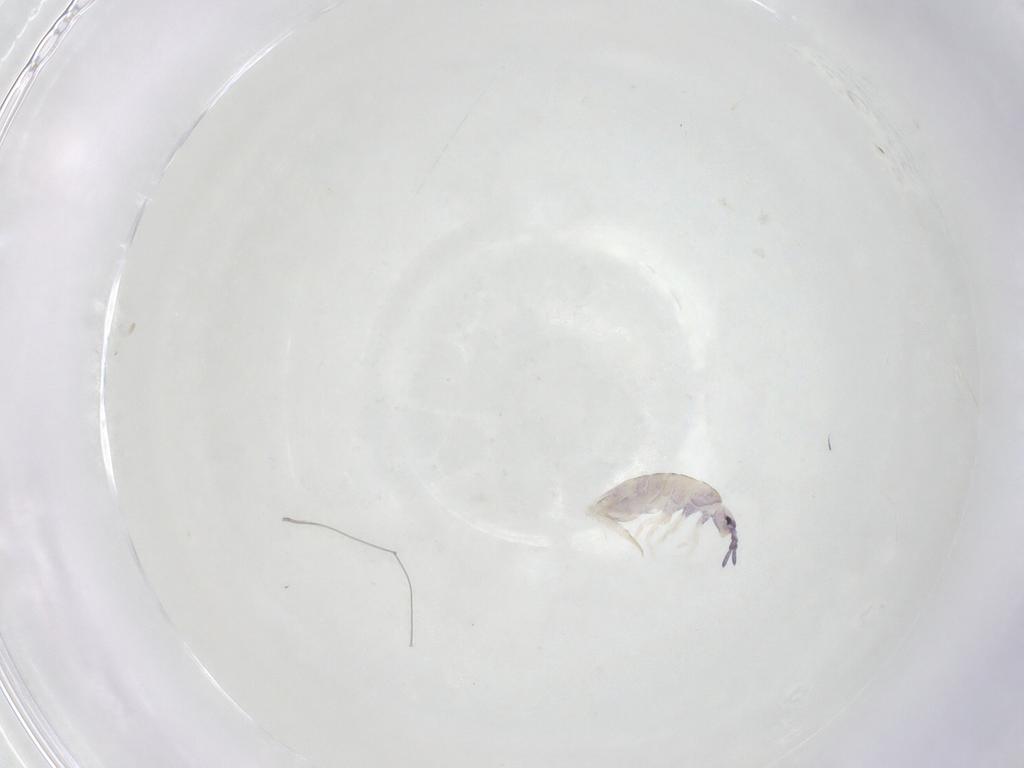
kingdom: Animalia
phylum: Arthropoda
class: Collembola
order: Entomobryomorpha
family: Entomobryidae
